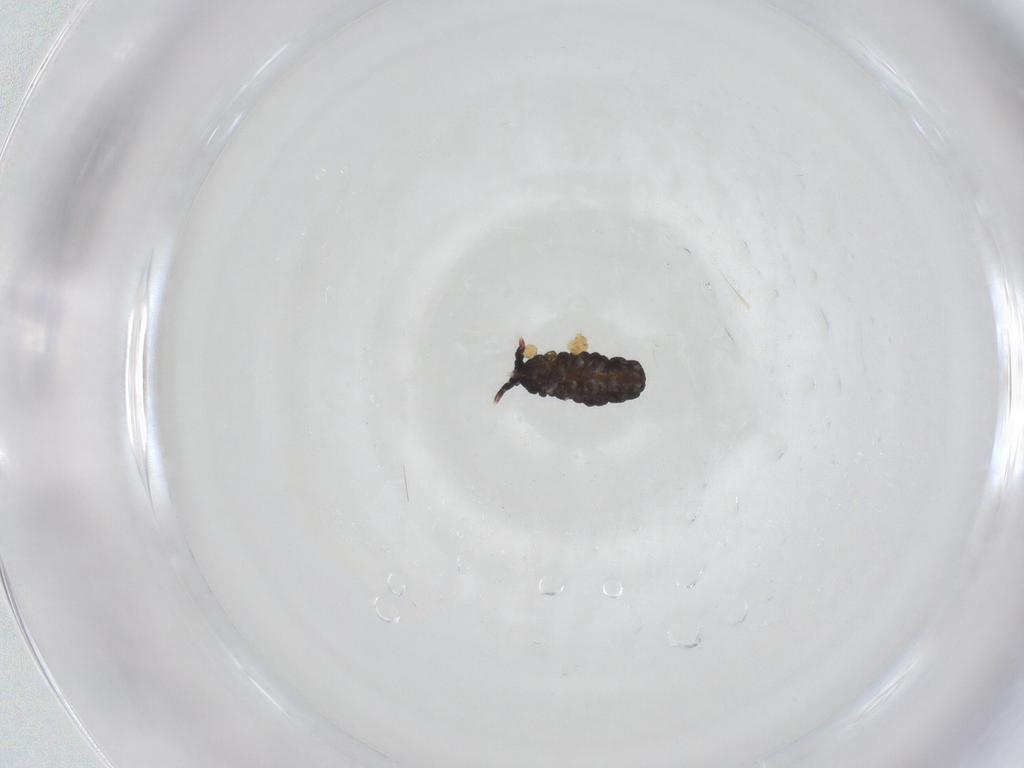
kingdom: Animalia
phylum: Arthropoda
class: Collembola
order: Poduromorpha
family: Neanuridae
